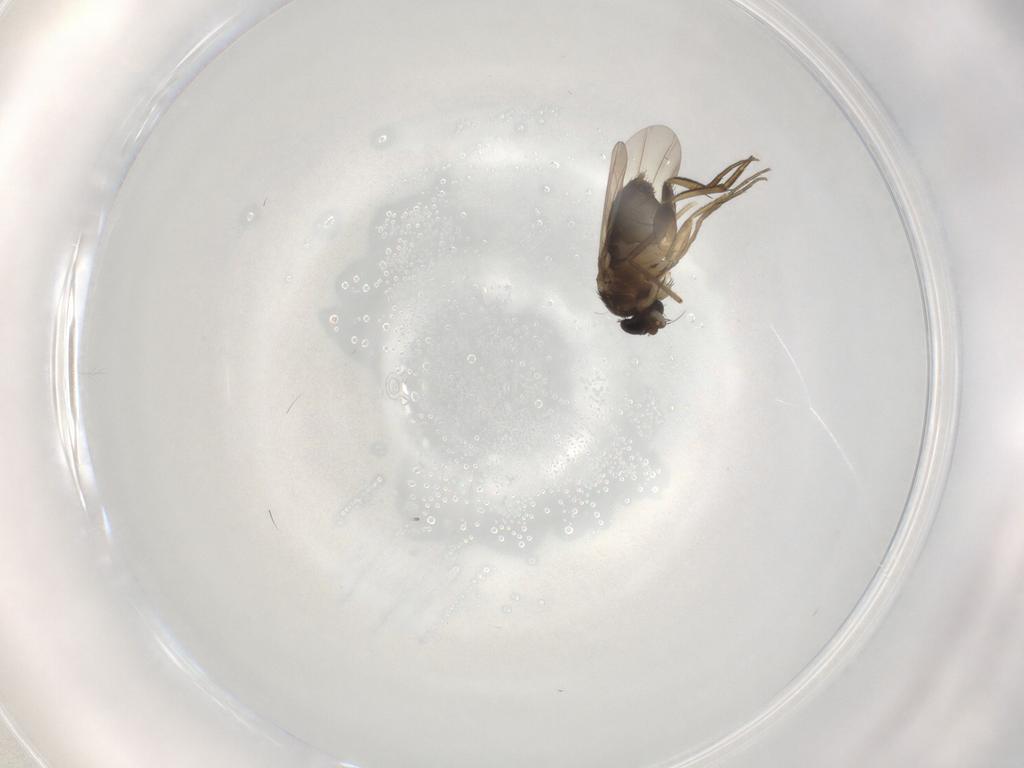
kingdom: Animalia
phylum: Arthropoda
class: Insecta
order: Diptera
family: Phoridae
